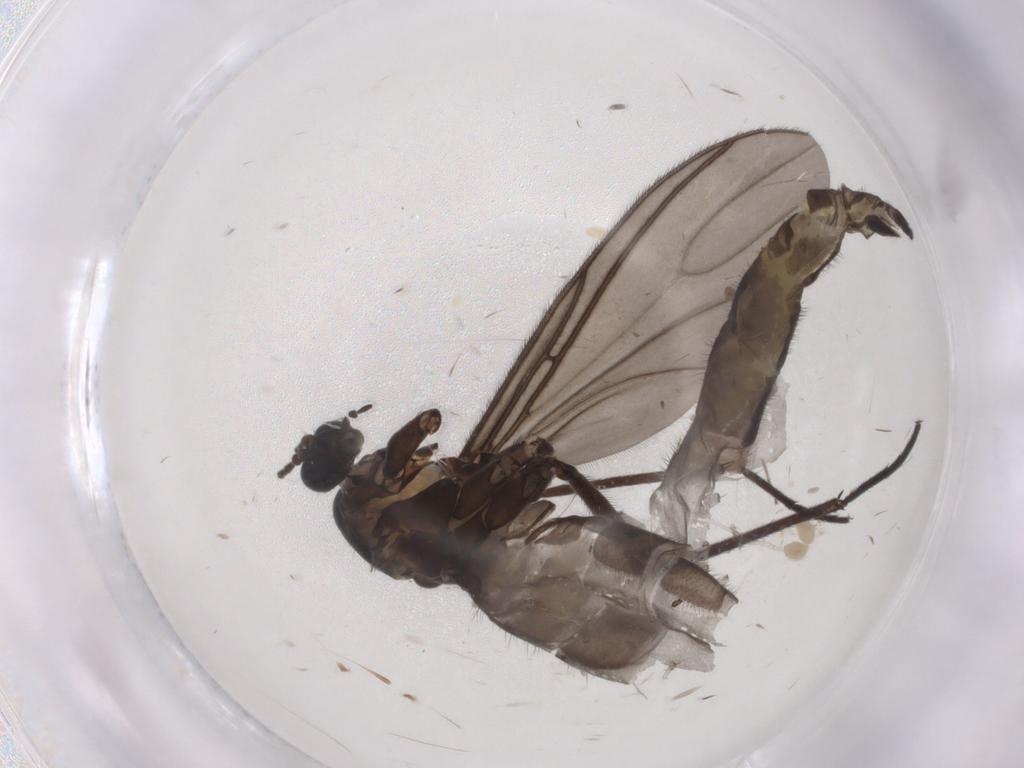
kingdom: Animalia
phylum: Arthropoda
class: Insecta
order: Diptera
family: Sciaridae
